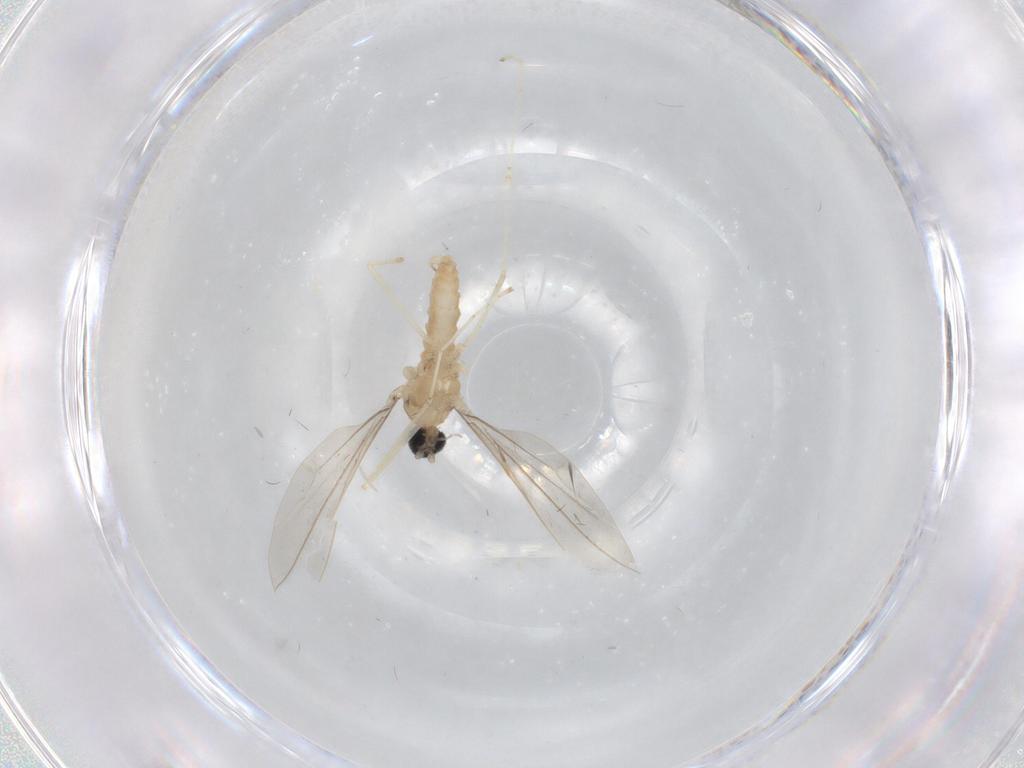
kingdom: Animalia
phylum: Arthropoda
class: Insecta
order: Diptera
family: Cecidomyiidae
